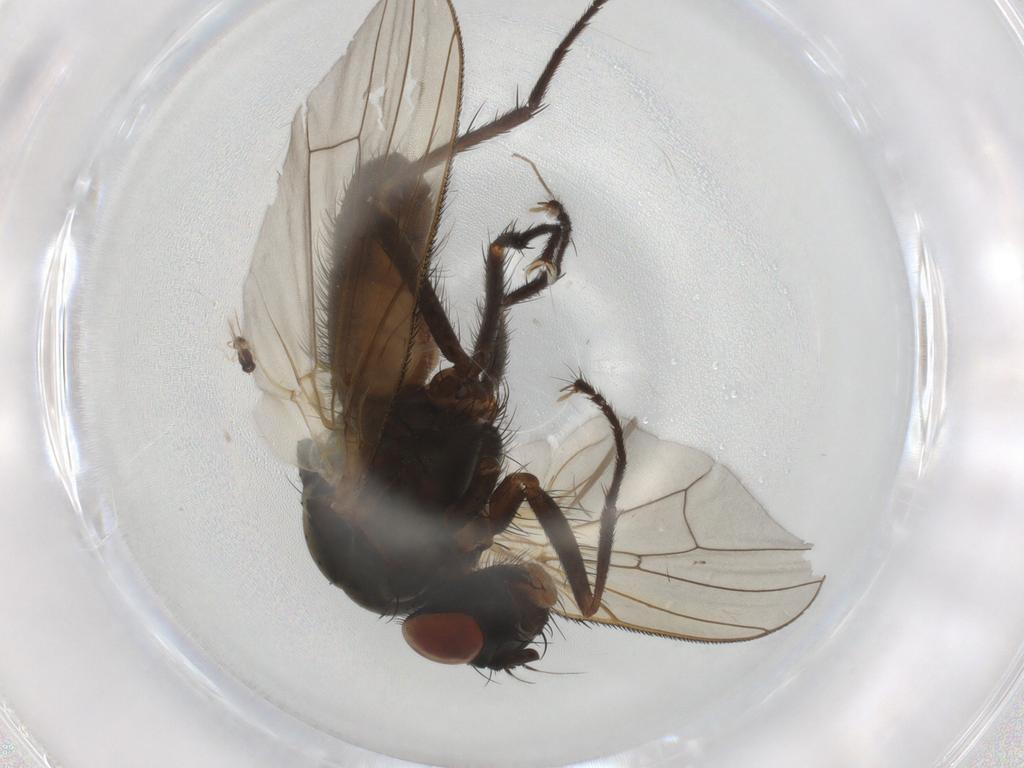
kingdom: Animalia
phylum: Arthropoda
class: Insecta
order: Diptera
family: Anthomyiidae
